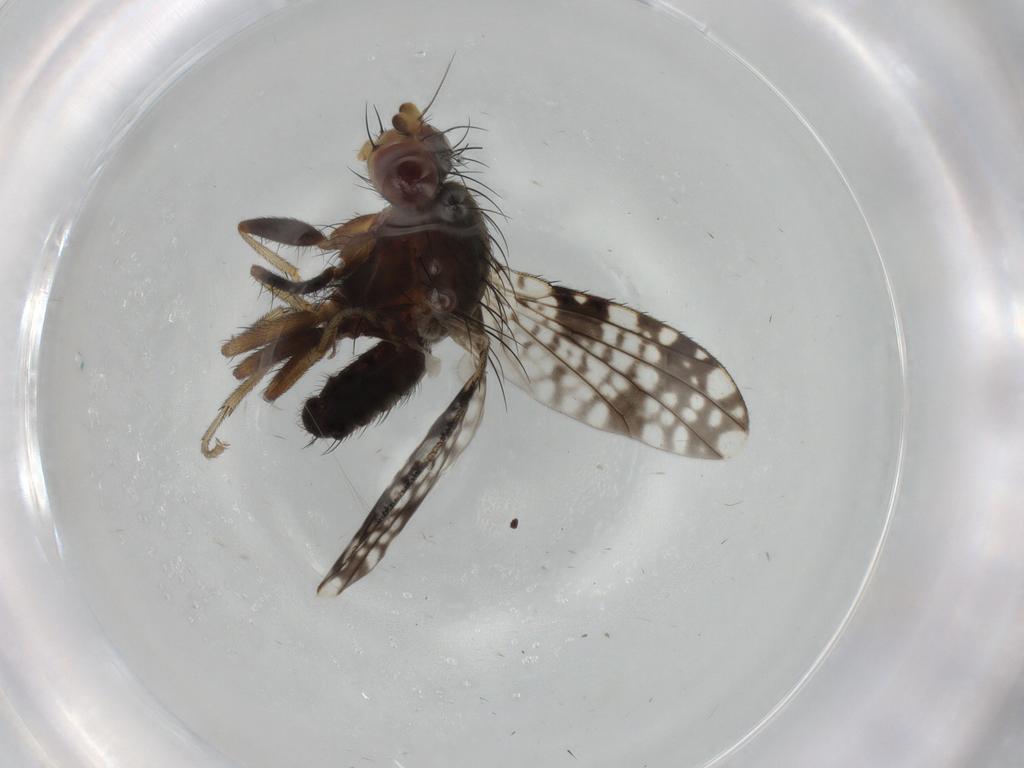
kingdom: Animalia
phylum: Arthropoda
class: Insecta
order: Diptera
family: Tephritidae
